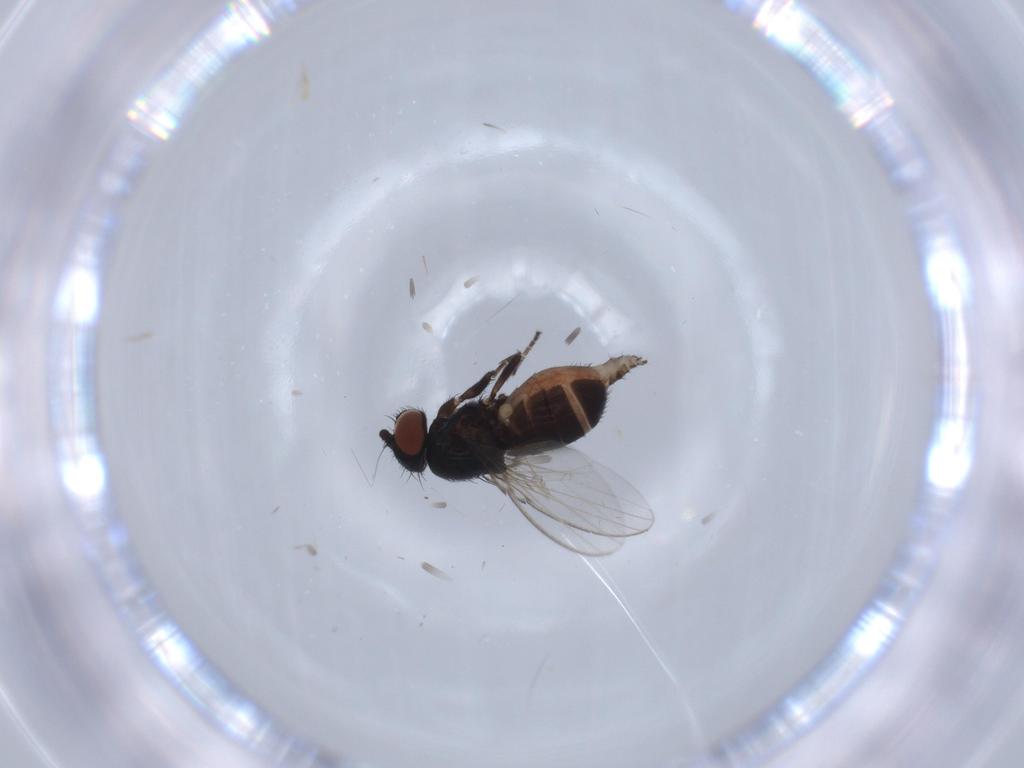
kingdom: Animalia
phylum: Arthropoda
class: Insecta
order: Diptera
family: Milichiidae
